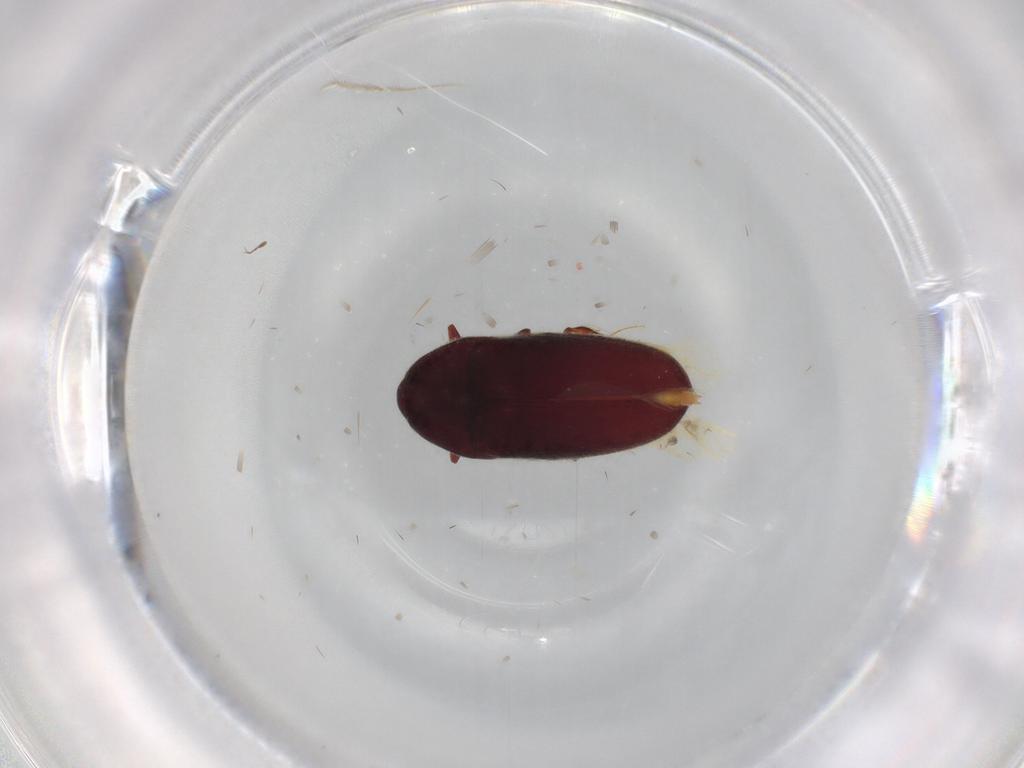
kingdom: Animalia
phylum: Arthropoda
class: Insecta
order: Coleoptera
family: Throscidae
